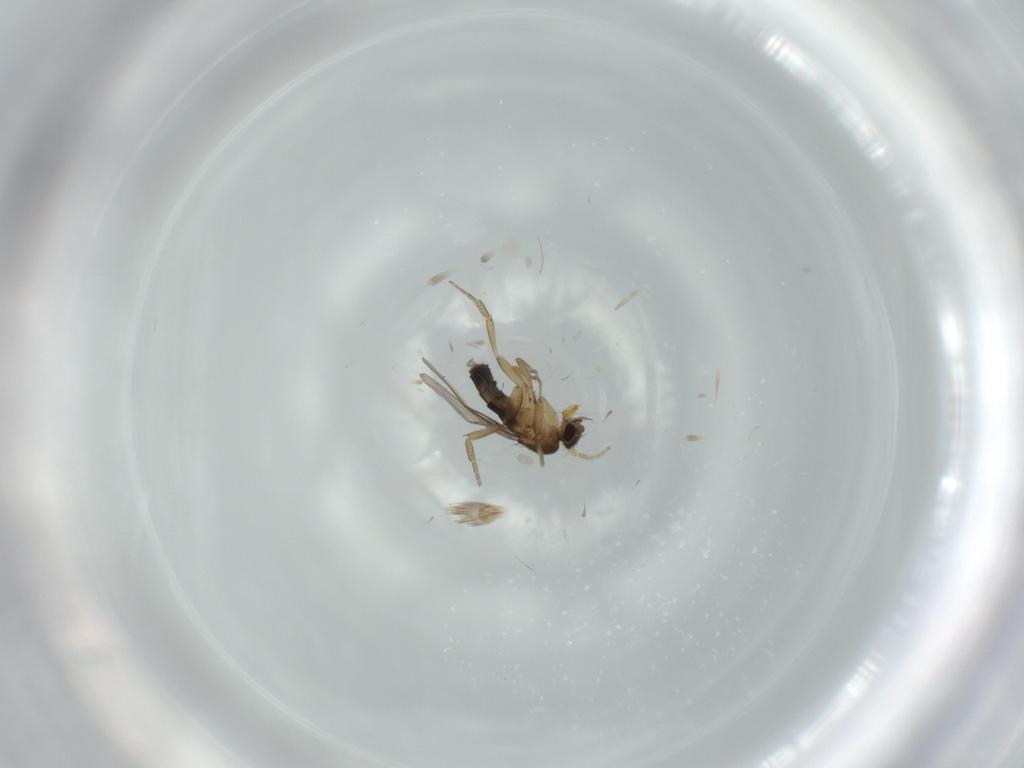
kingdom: Animalia
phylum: Arthropoda
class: Insecta
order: Diptera
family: Phoridae
